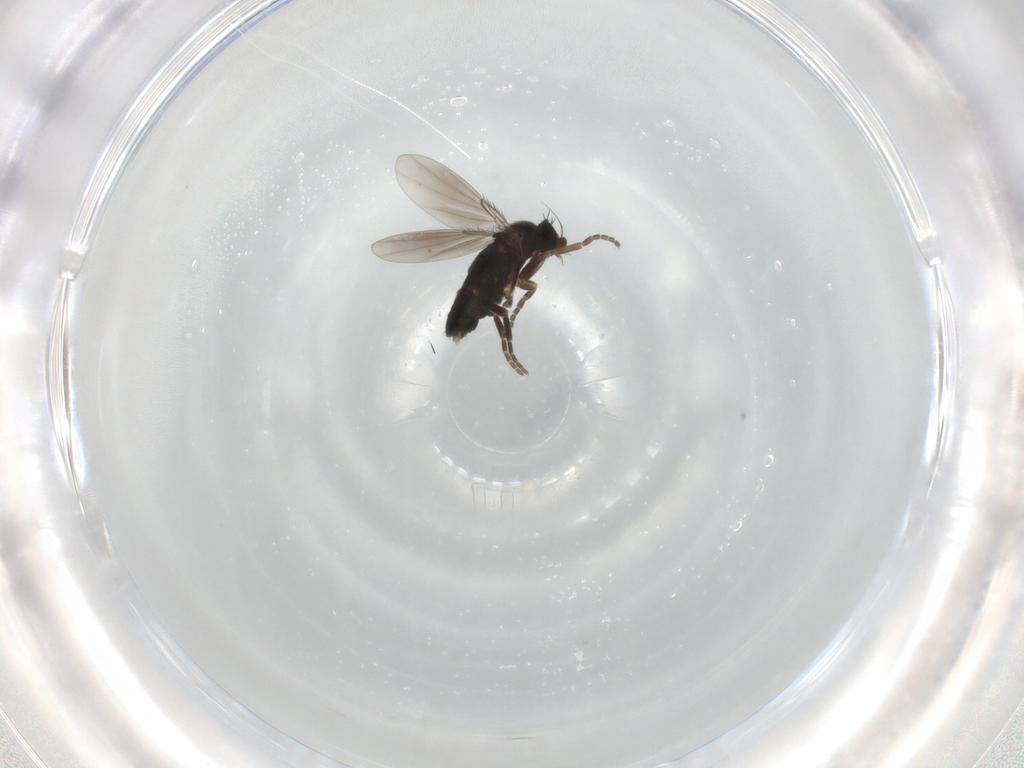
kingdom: Animalia
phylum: Arthropoda
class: Insecta
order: Diptera
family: Phoridae
